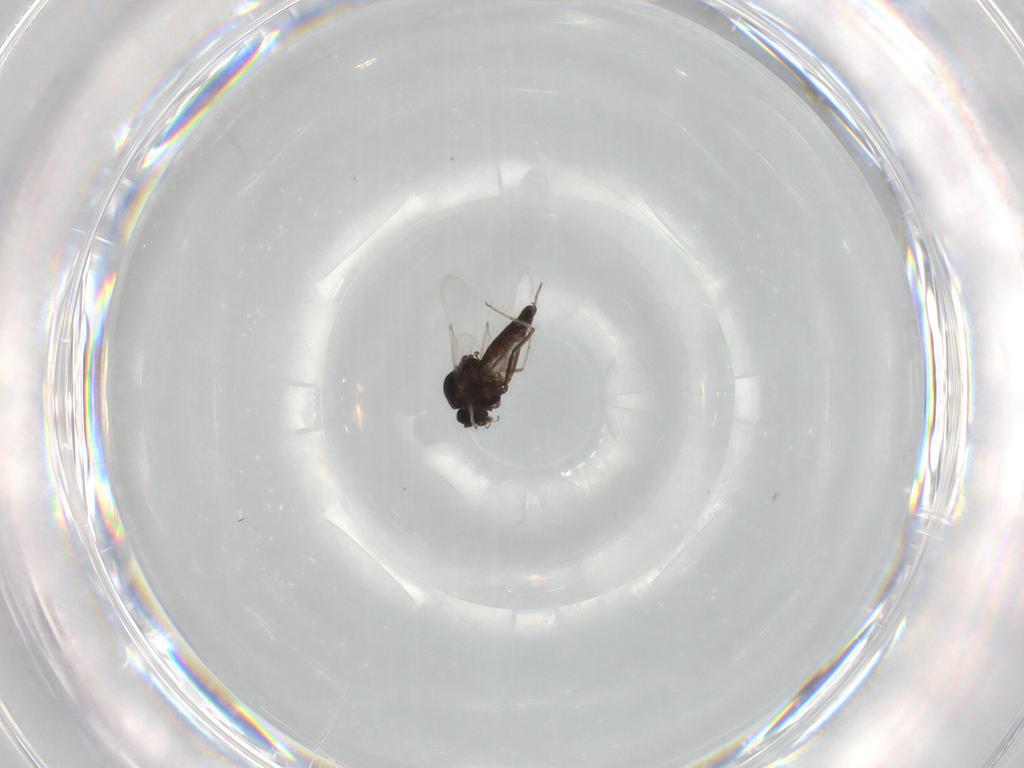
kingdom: Animalia
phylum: Arthropoda
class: Insecta
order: Diptera
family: Ceratopogonidae
